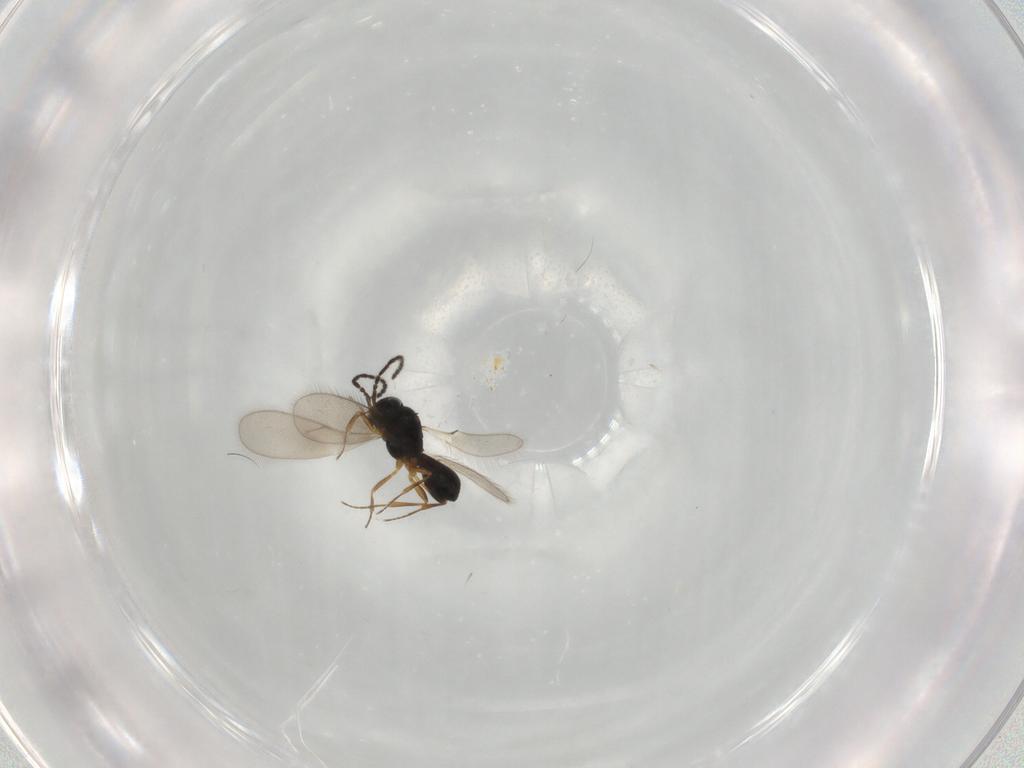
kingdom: Animalia
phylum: Arthropoda
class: Insecta
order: Hymenoptera
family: Scelionidae
